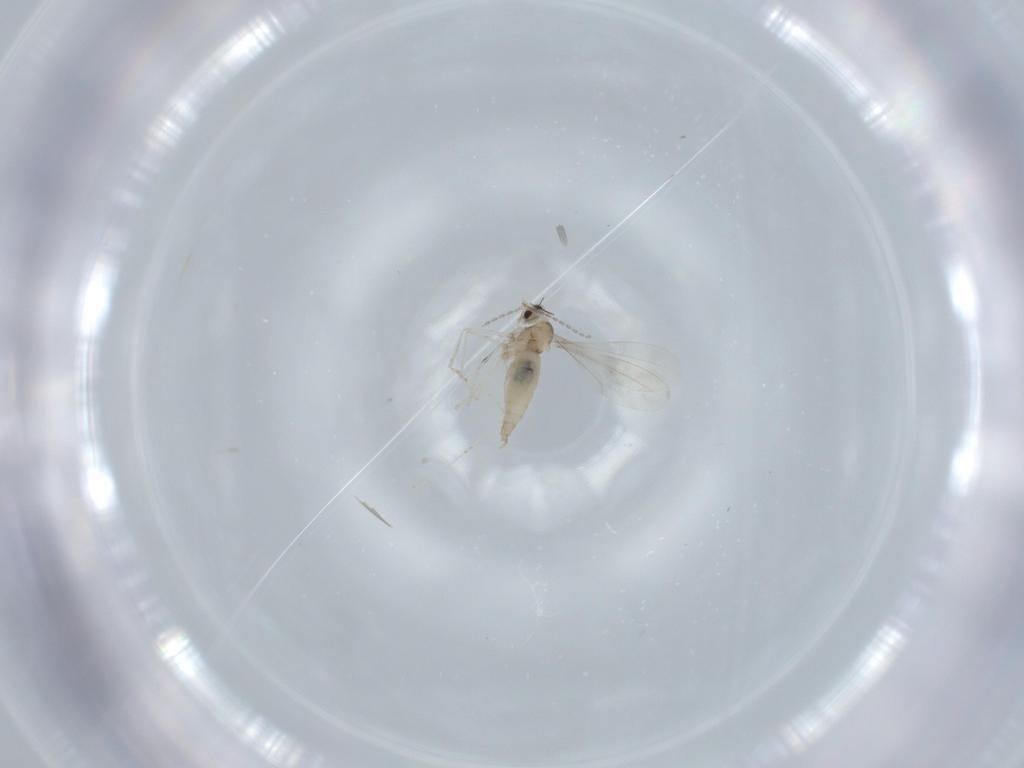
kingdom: Animalia
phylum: Arthropoda
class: Insecta
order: Diptera
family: Cecidomyiidae
